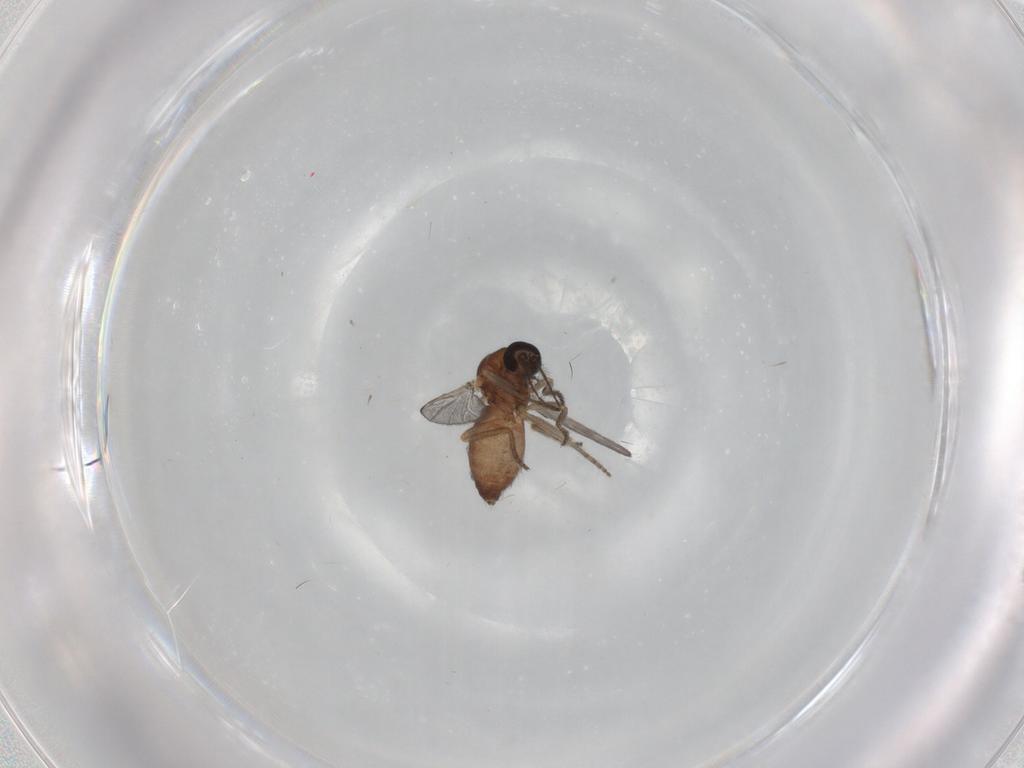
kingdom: Animalia
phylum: Arthropoda
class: Insecta
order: Diptera
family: Ceratopogonidae
